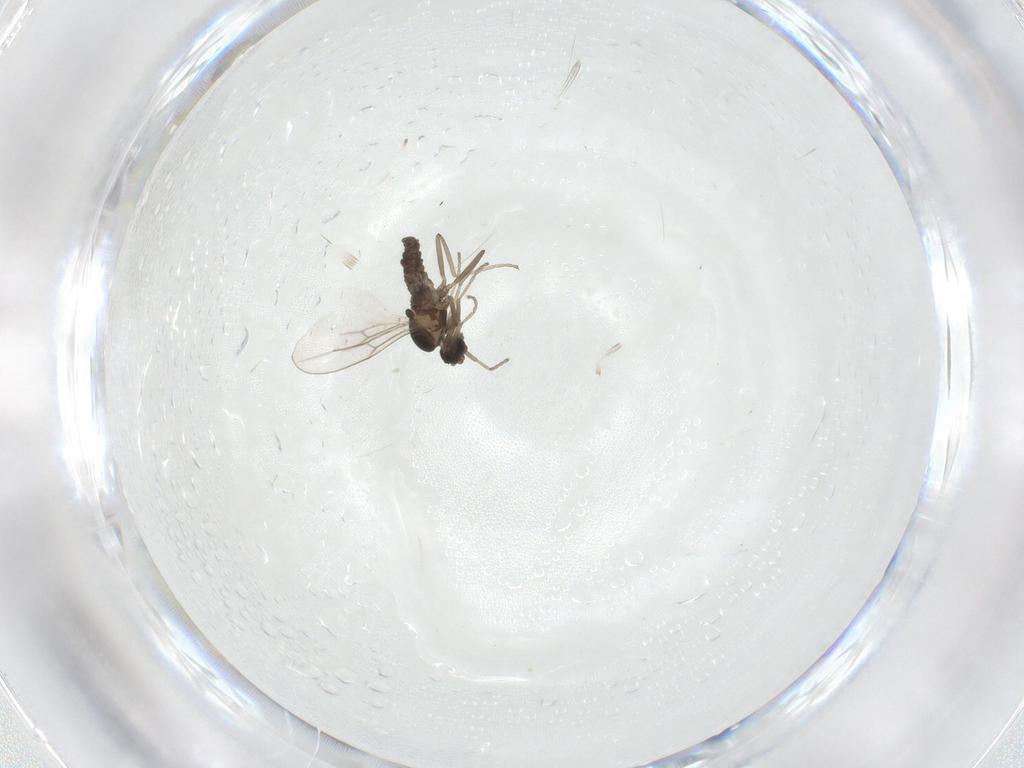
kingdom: Animalia
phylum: Arthropoda
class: Insecta
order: Diptera
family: Cecidomyiidae
